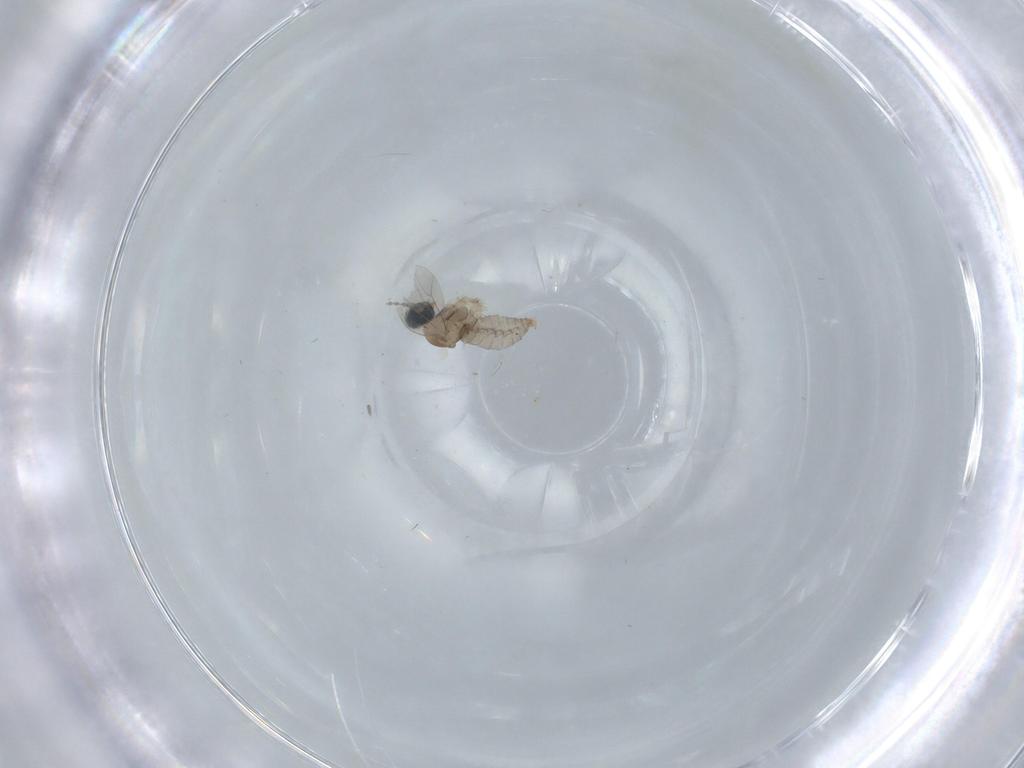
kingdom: Animalia
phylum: Arthropoda
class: Insecta
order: Diptera
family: Cecidomyiidae
